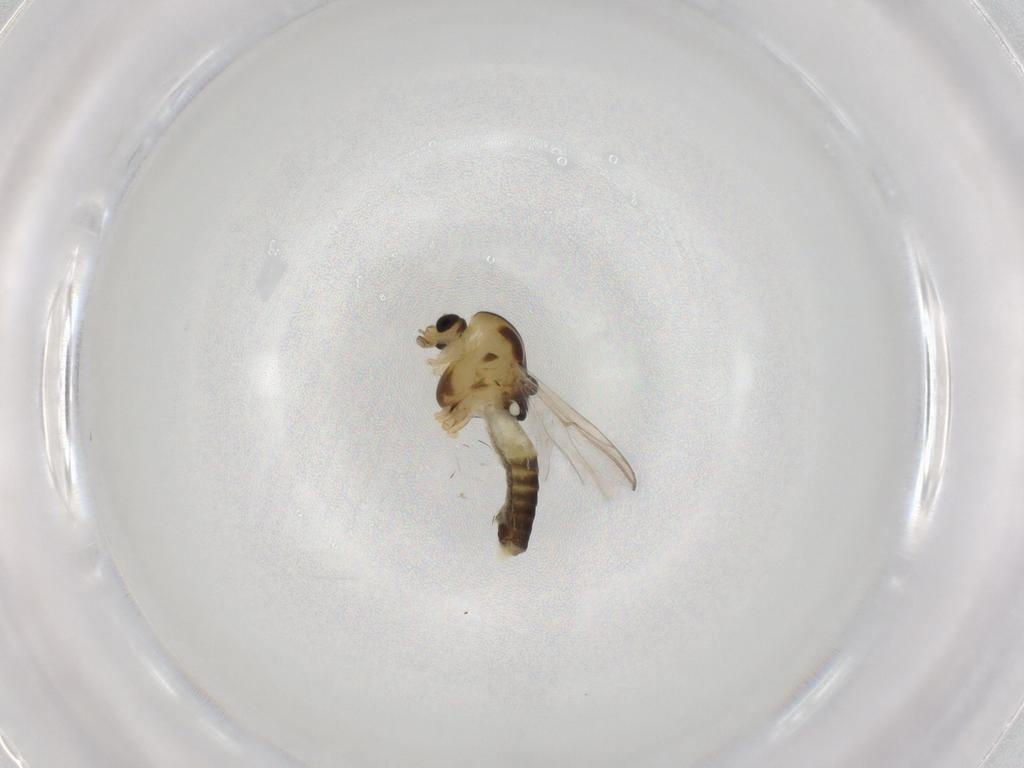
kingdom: Animalia
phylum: Arthropoda
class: Insecta
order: Diptera
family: Chironomidae
